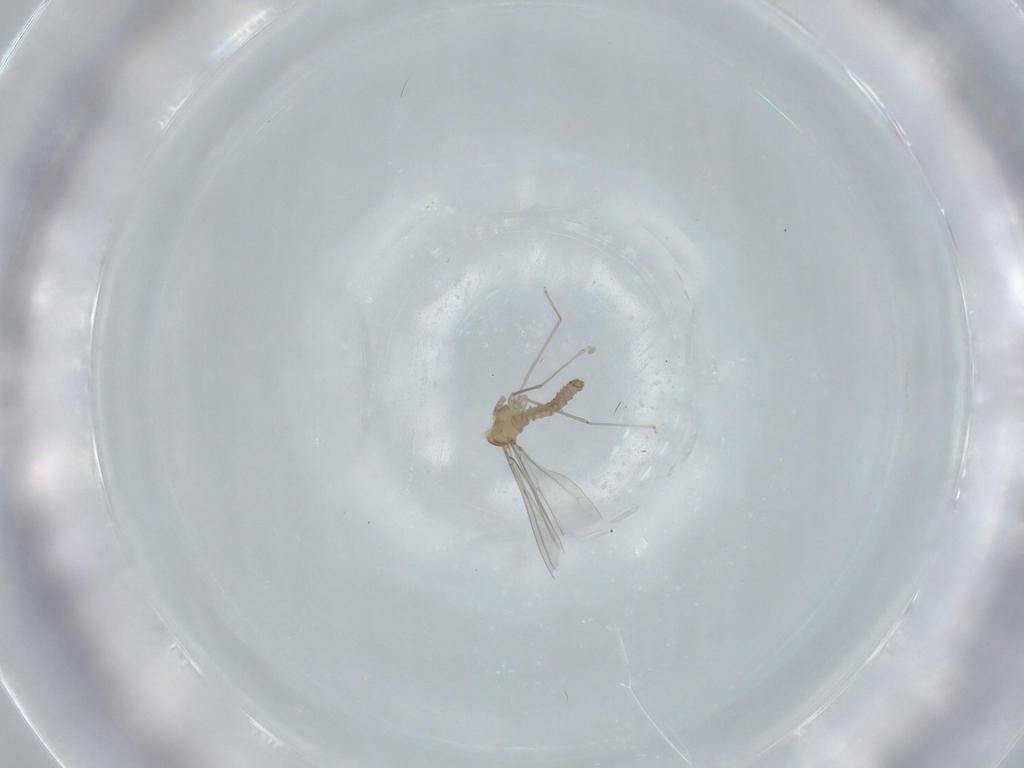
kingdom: Animalia
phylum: Arthropoda
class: Insecta
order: Diptera
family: Cecidomyiidae
